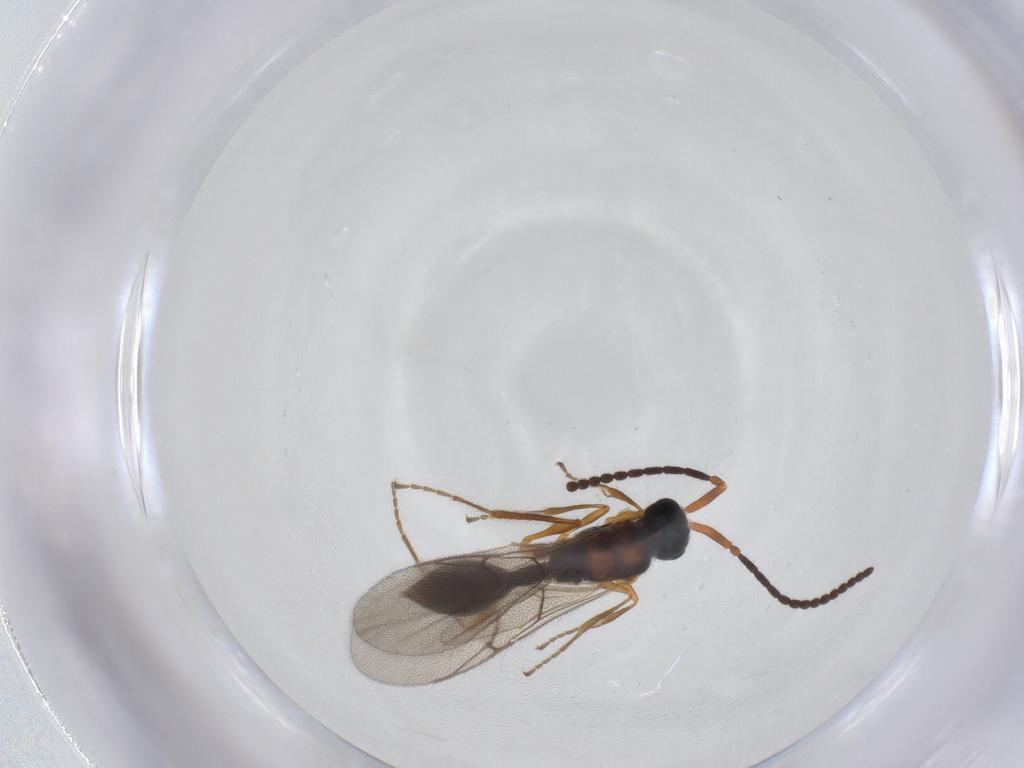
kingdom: Animalia
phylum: Arthropoda
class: Insecta
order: Hymenoptera
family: Diapriidae
